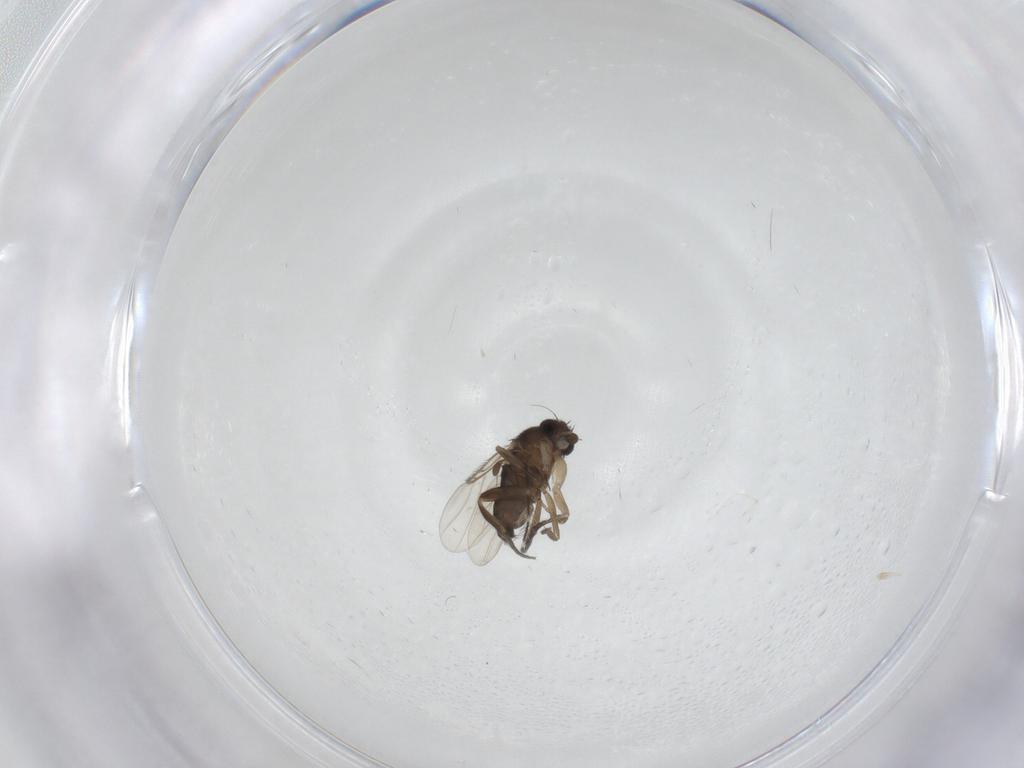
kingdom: Animalia
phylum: Arthropoda
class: Insecta
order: Diptera
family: Phoridae
